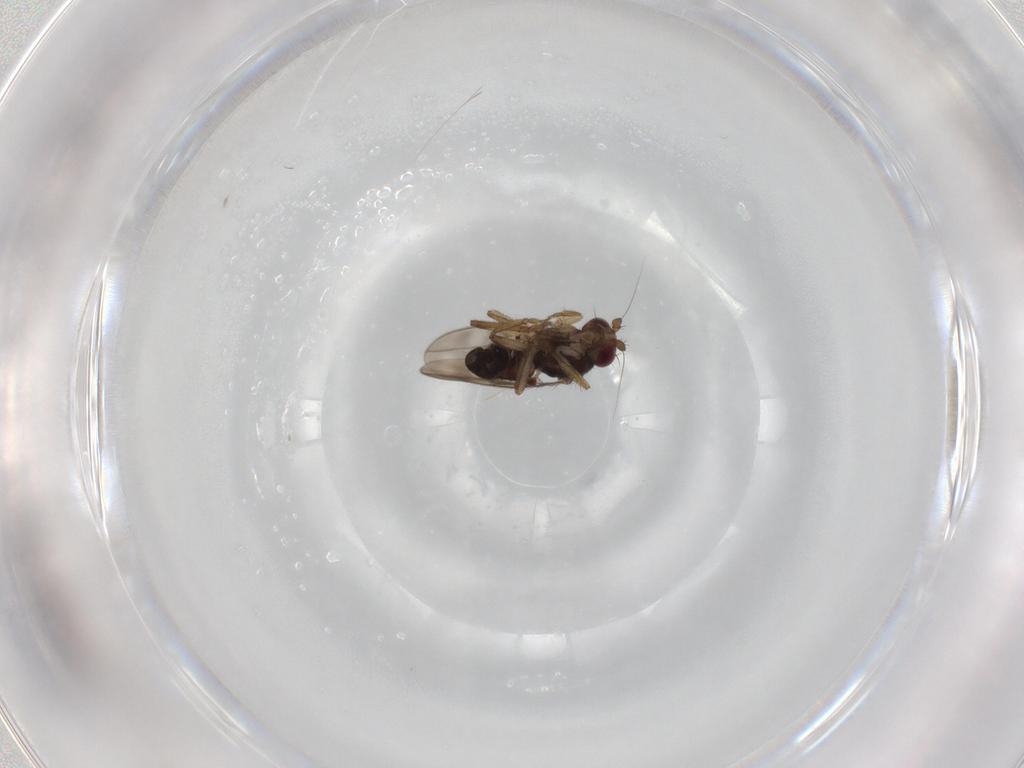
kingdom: Animalia
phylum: Arthropoda
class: Insecta
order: Diptera
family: Sphaeroceridae
